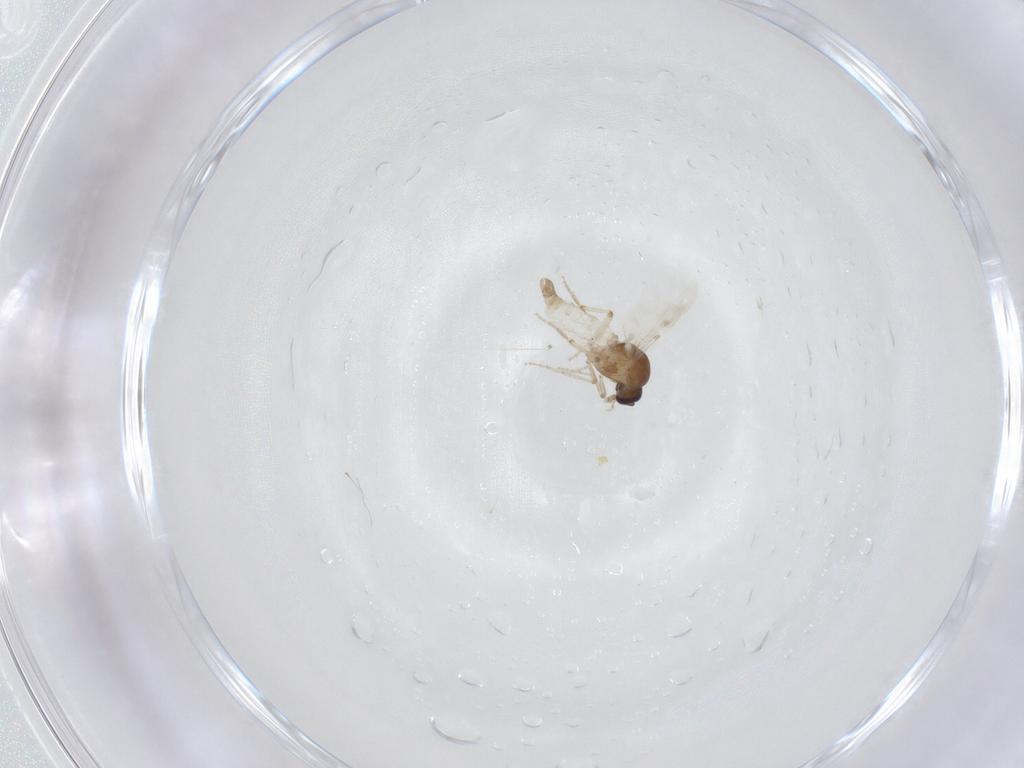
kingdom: Animalia
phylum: Arthropoda
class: Insecta
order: Diptera
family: Ceratopogonidae
